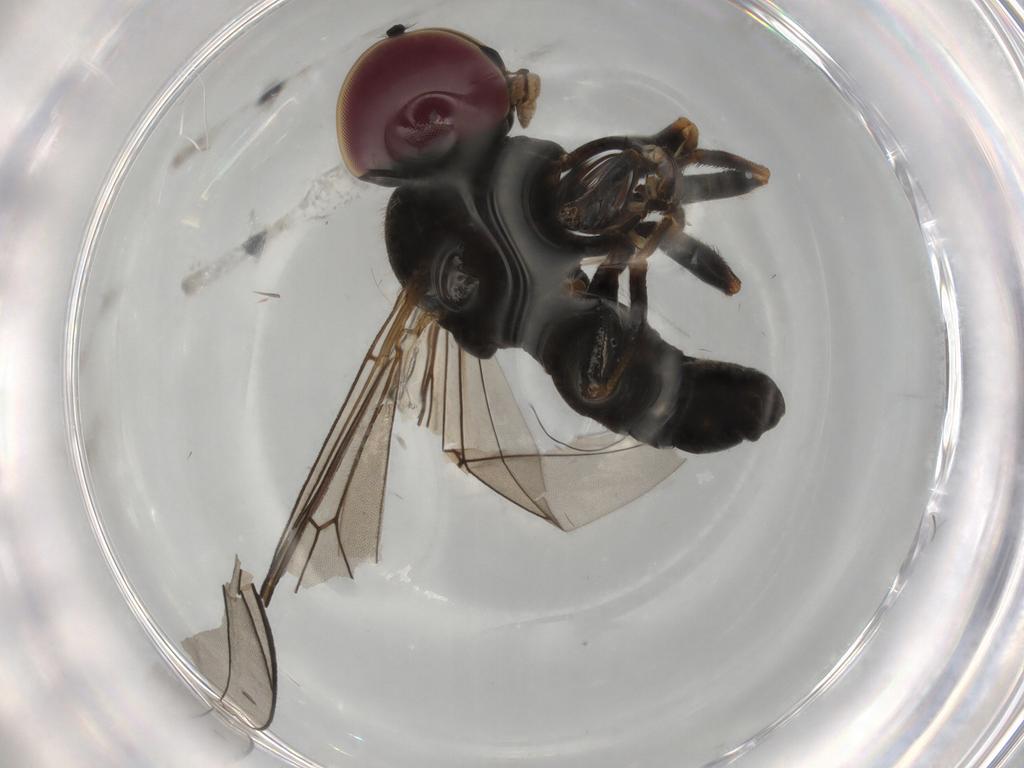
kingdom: Animalia
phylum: Arthropoda
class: Insecta
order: Diptera
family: Pipunculidae
